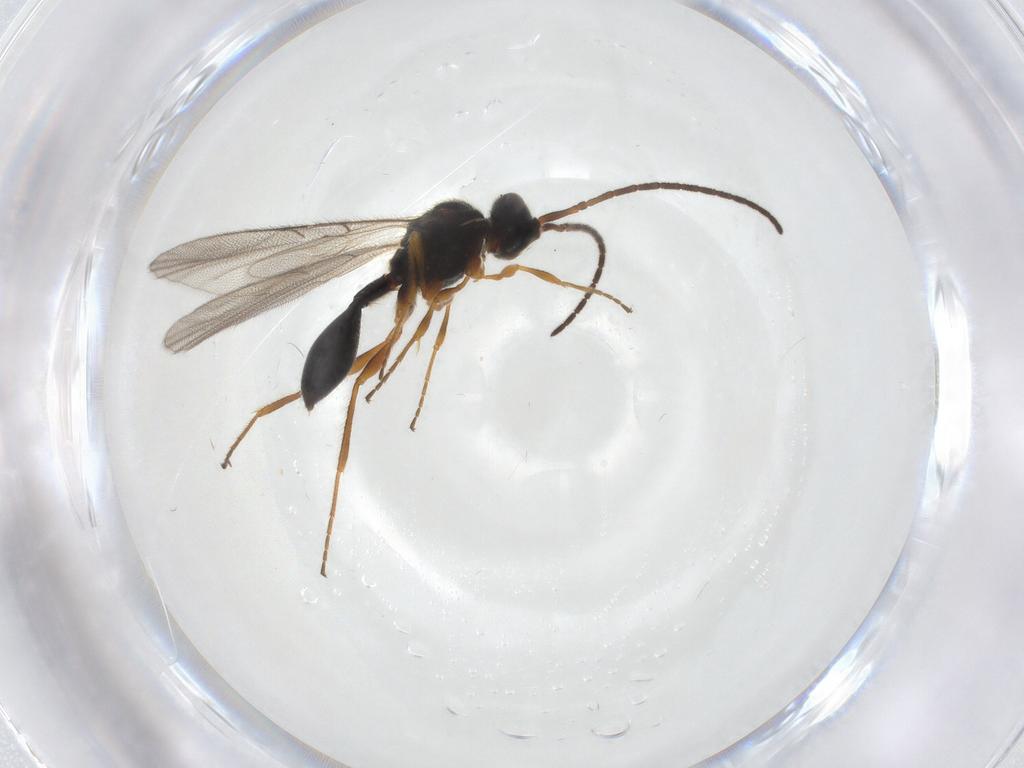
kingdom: Animalia
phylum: Arthropoda
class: Insecta
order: Hymenoptera
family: Diapriidae
